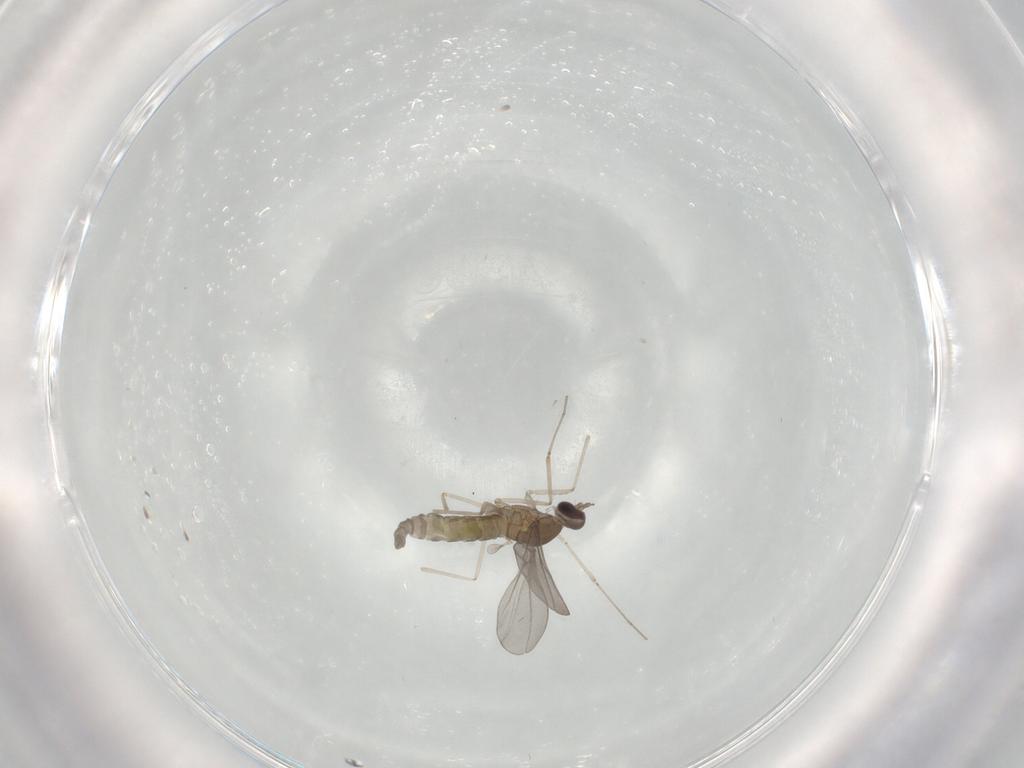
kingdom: Animalia
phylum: Arthropoda
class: Insecta
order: Diptera
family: Cecidomyiidae
